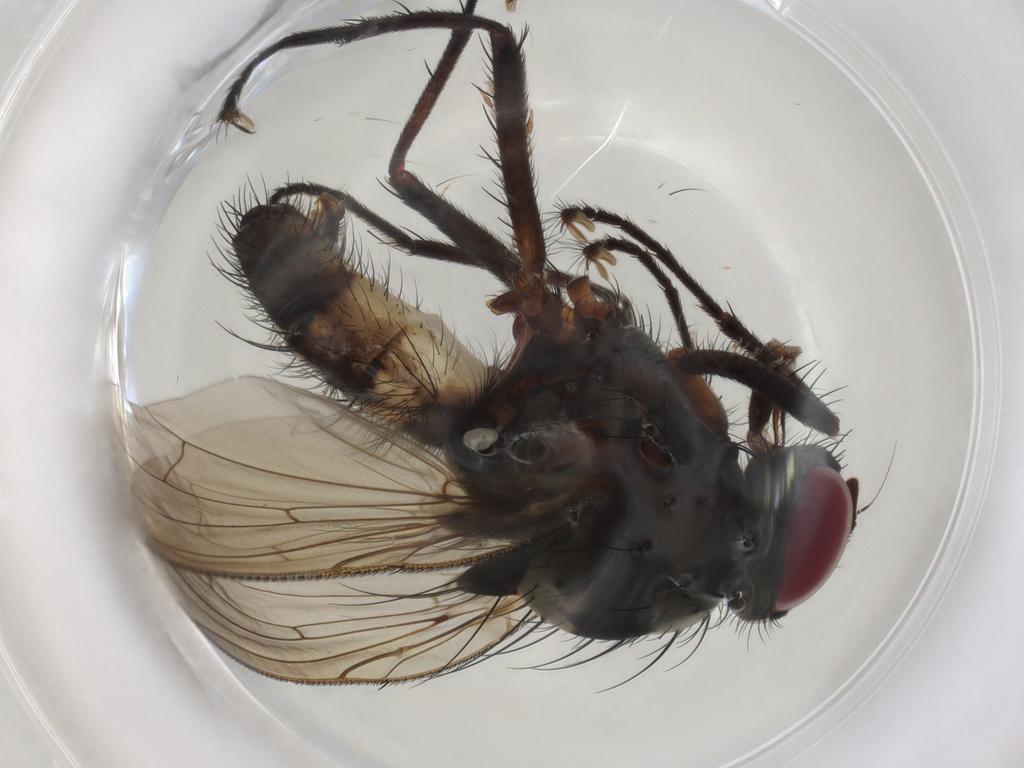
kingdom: Animalia
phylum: Arthropoda
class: Insecta
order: Diptera
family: Anthomyiidae
